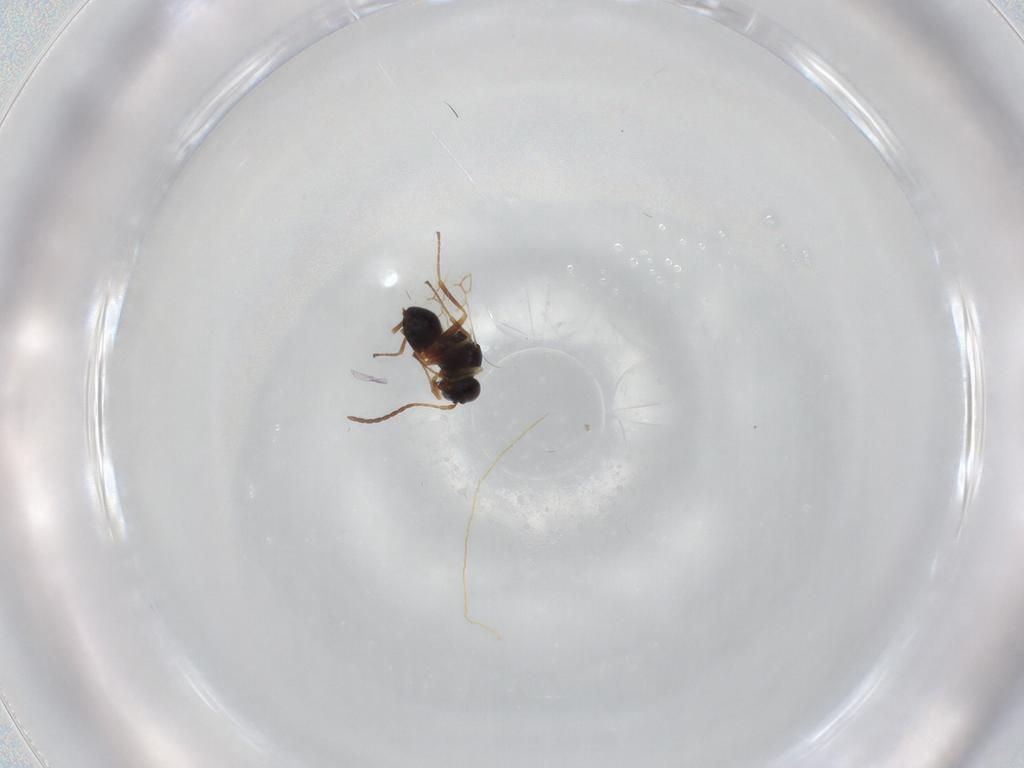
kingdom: Animalia
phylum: Arthropoda
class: Insecta
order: Hymenoptera
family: Figitidae
